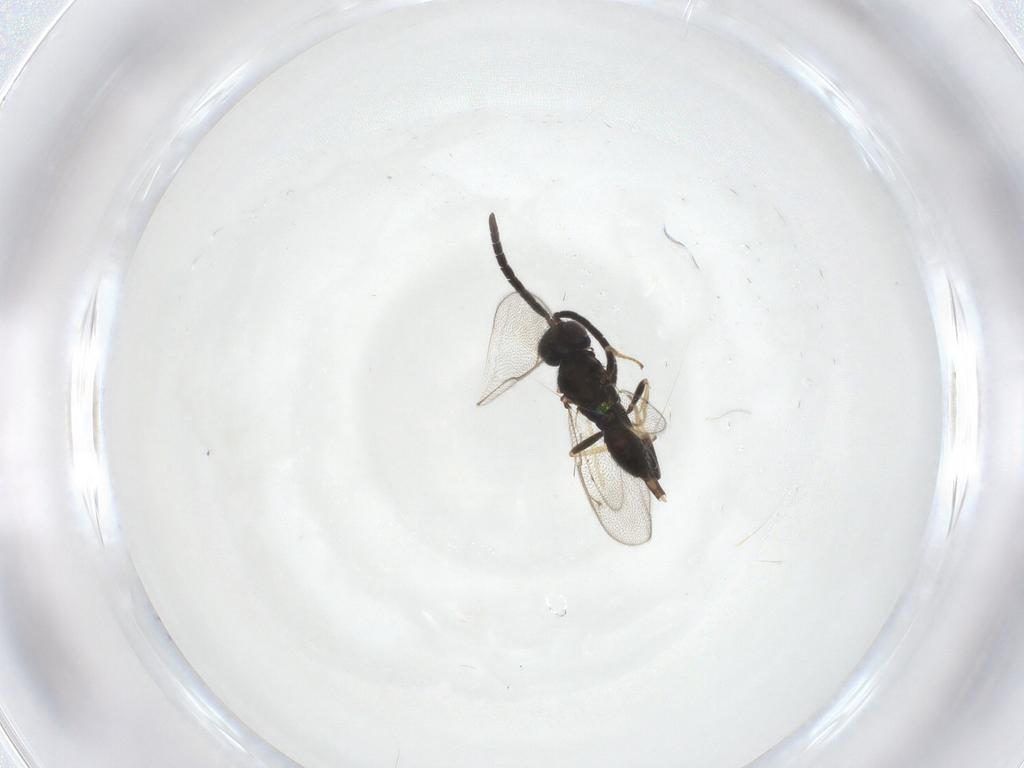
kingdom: Animalia
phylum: Arthropoda
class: Insecta
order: Hymenoptera
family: Eupelmidae
